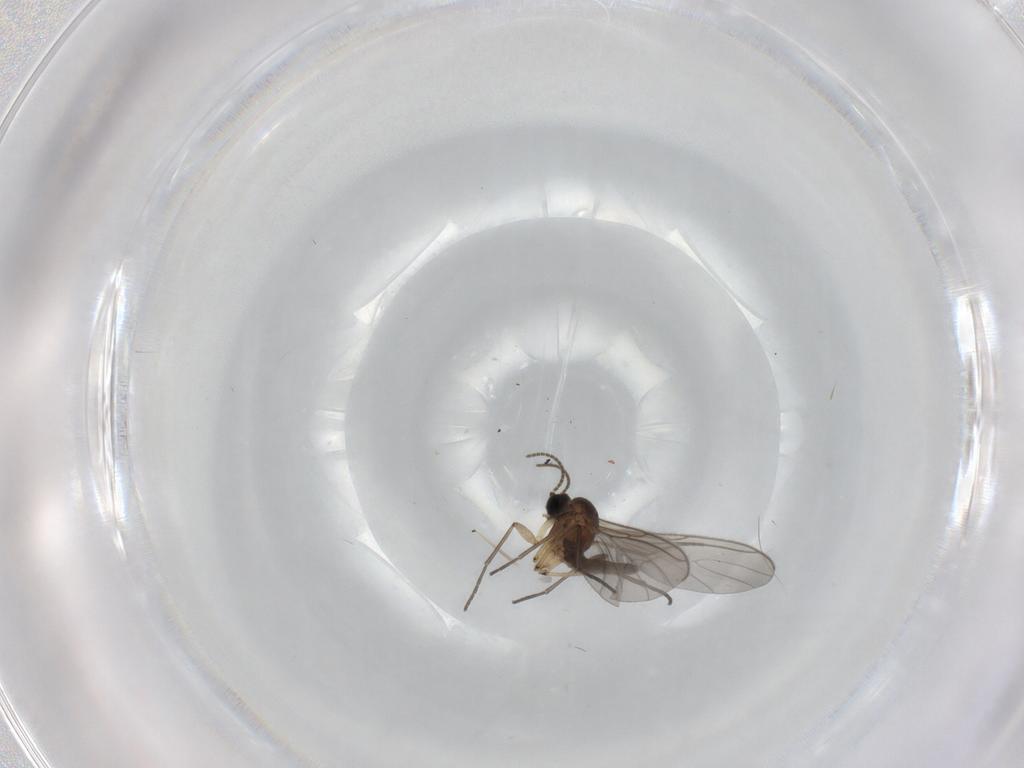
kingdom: Animalia
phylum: Arthropoda
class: Insecta
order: Diptera
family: Sciaridae
